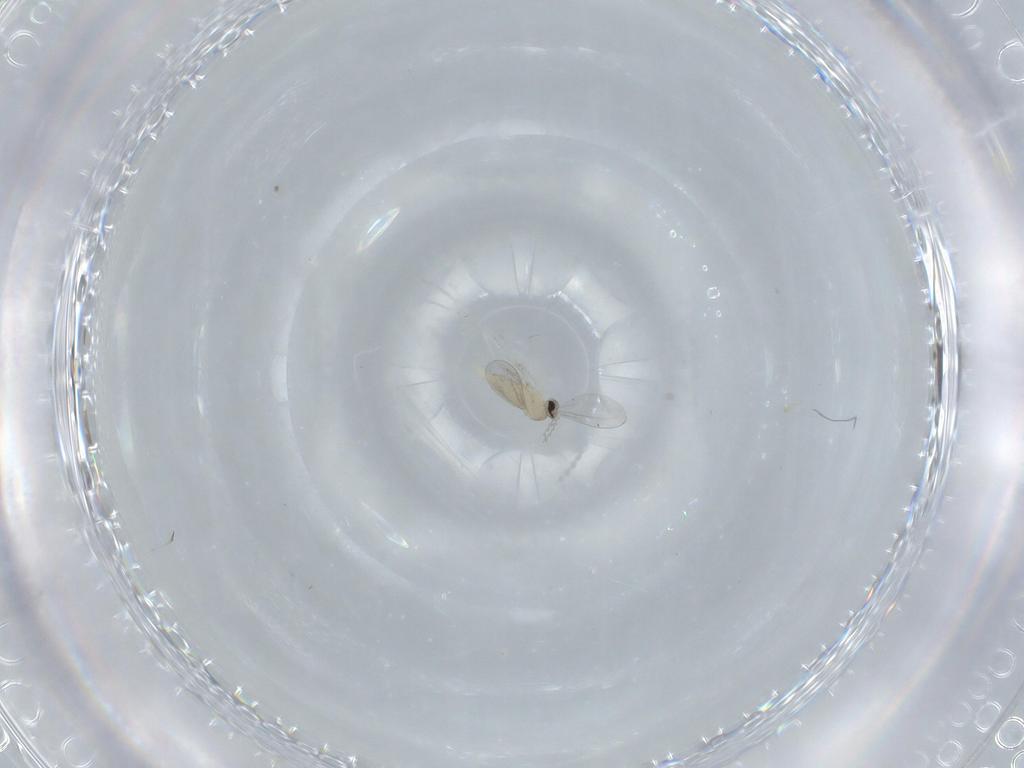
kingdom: Animalia
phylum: Arthropoda
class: Insecta
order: Diptera
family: Cecidomyiidae
